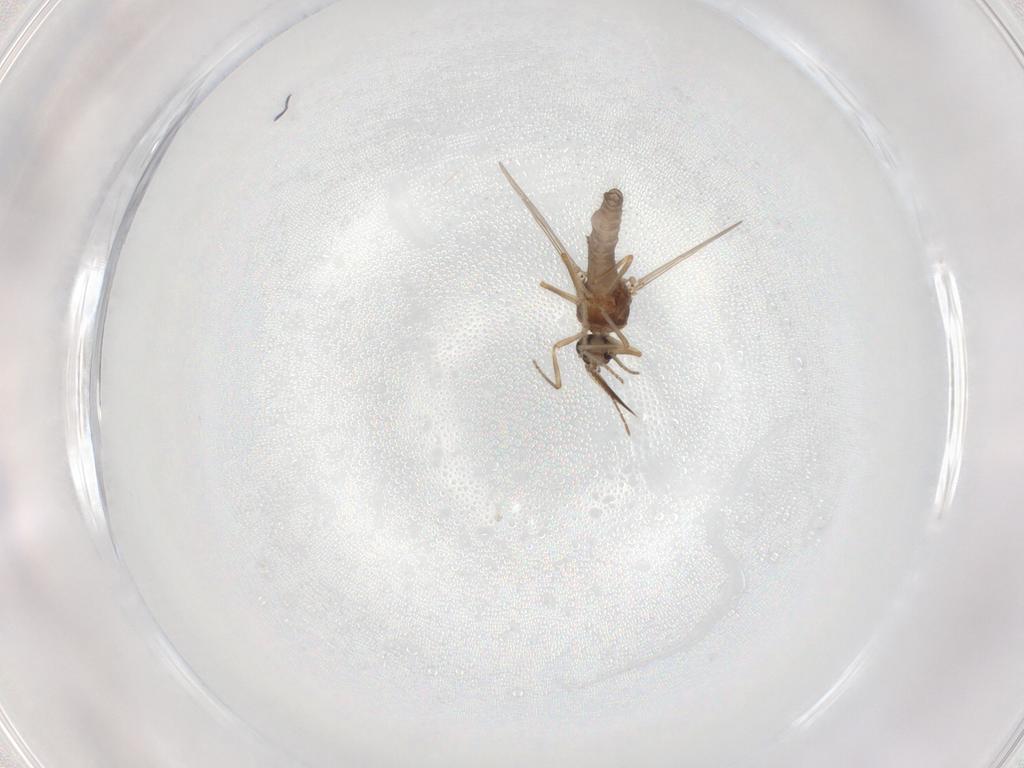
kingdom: Animalia
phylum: Arthropoda
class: Insecta
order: Diptera
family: Ceratopogonidae
